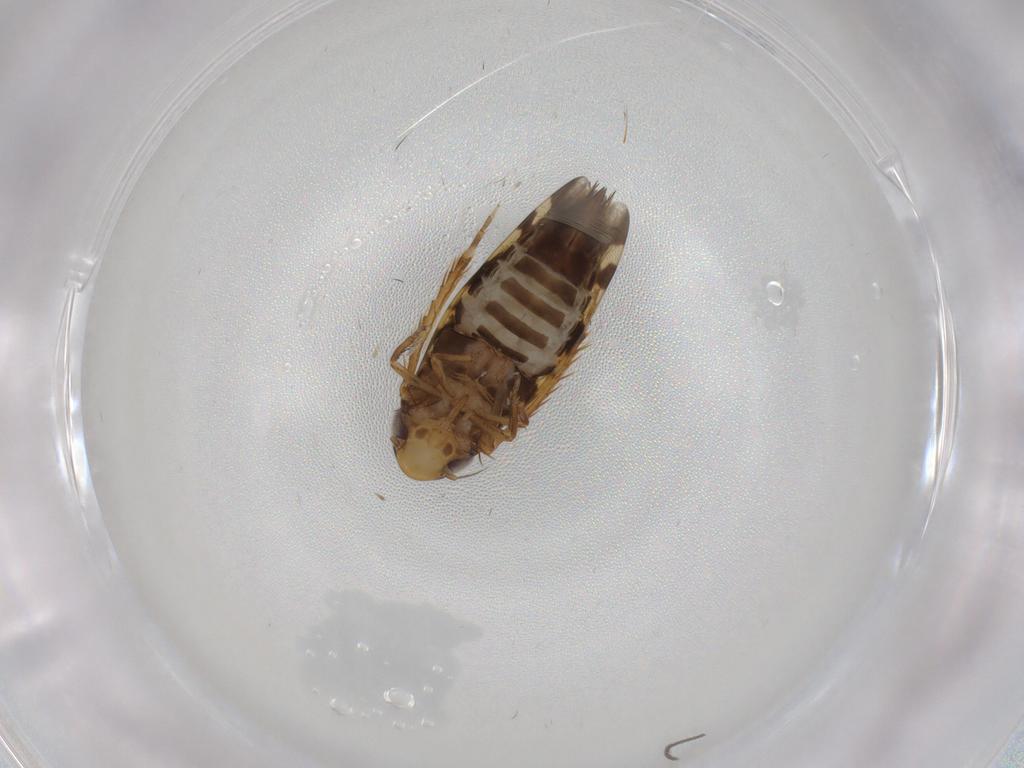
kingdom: Animalia
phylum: Arthropoda
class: Insecta
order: Hemiptera
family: Cicadellidae
